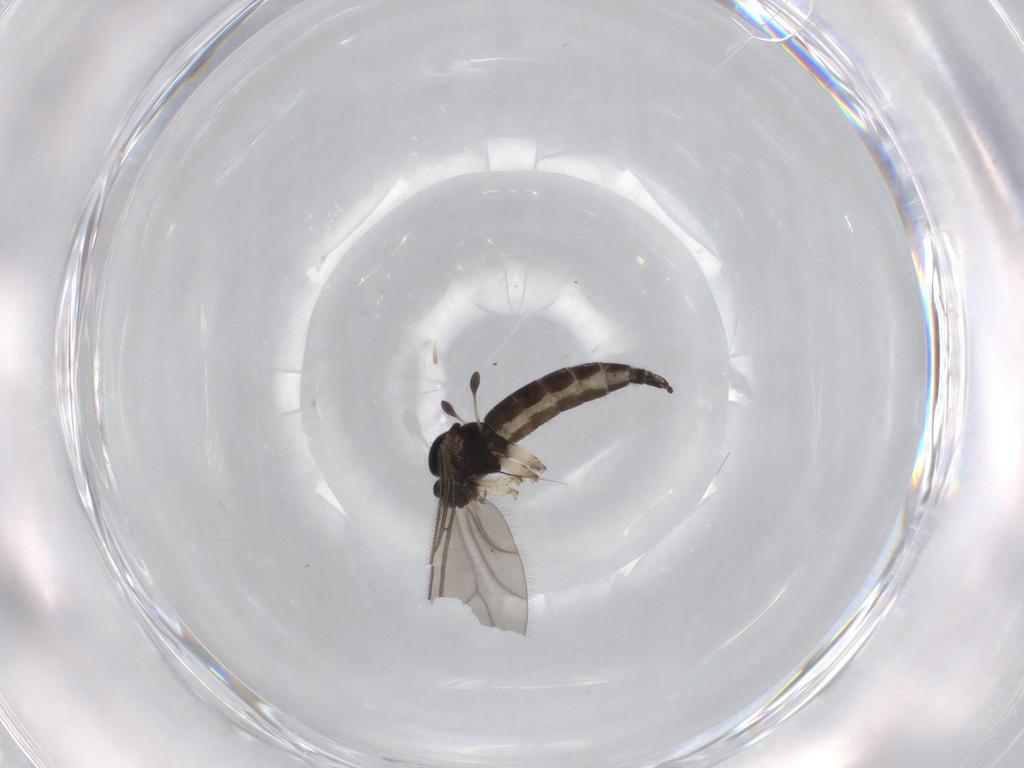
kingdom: Animalia
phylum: Arthropoda
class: Insecta
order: Diptera
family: Sciaridae
